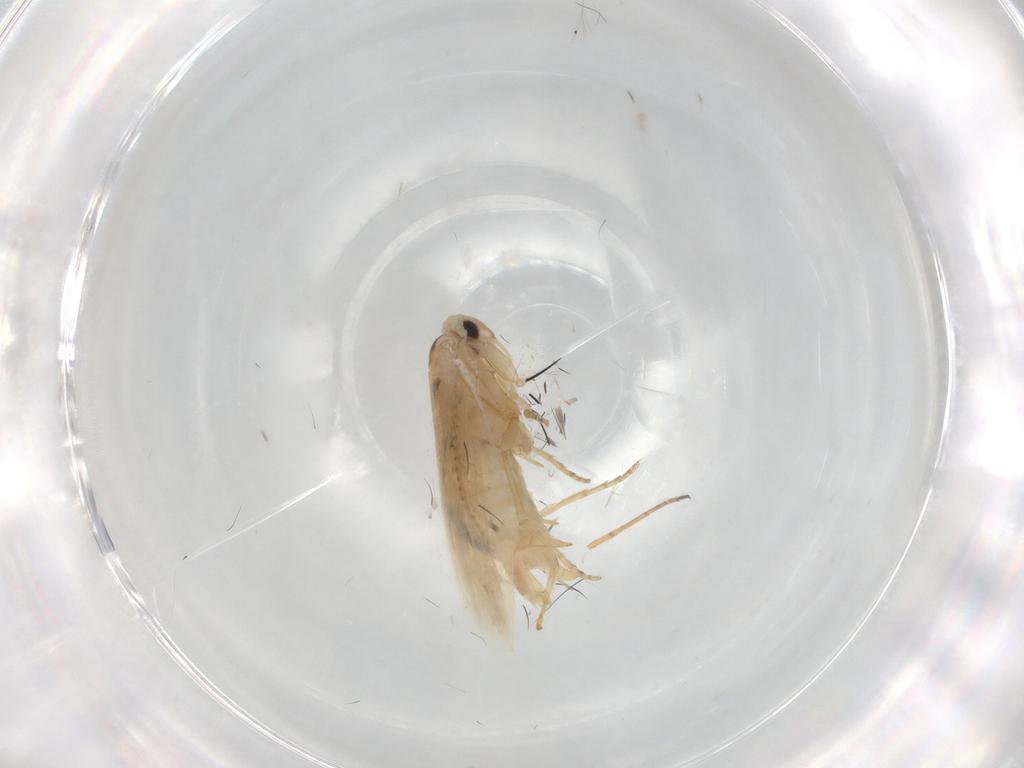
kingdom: Animalia
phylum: Arthropoda
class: Insecta
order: Lepidoptera
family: Bucculatricidae
